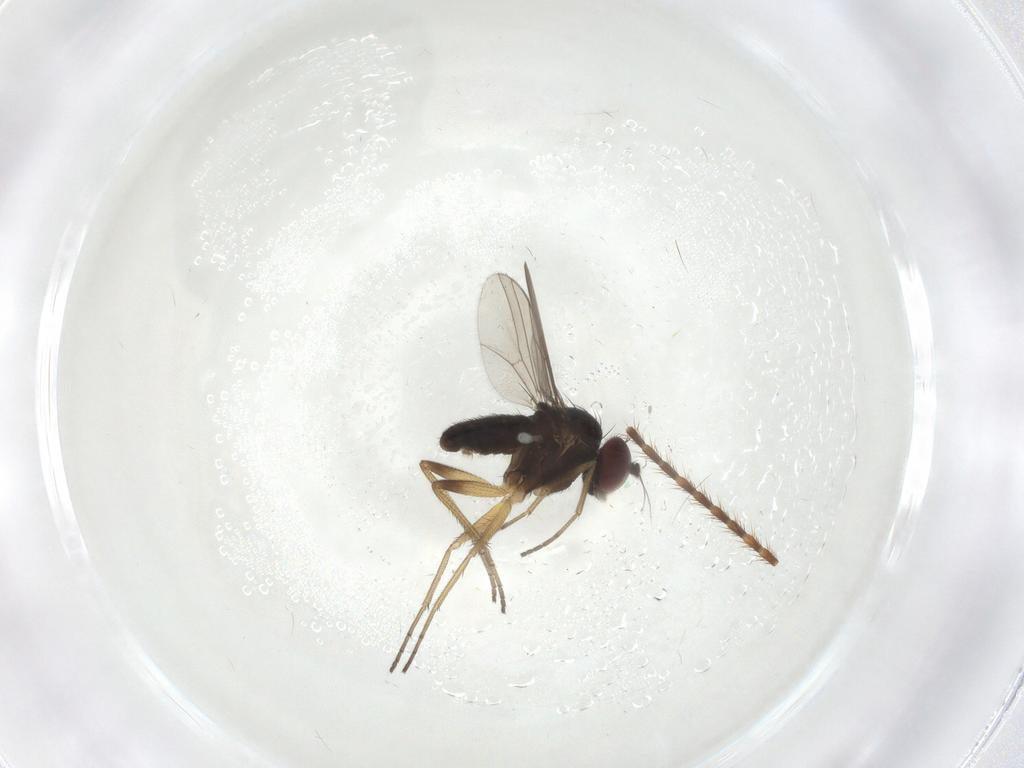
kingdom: Animalia
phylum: Arthropoda
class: Insecta
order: Diptera
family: Dolichopodidae
